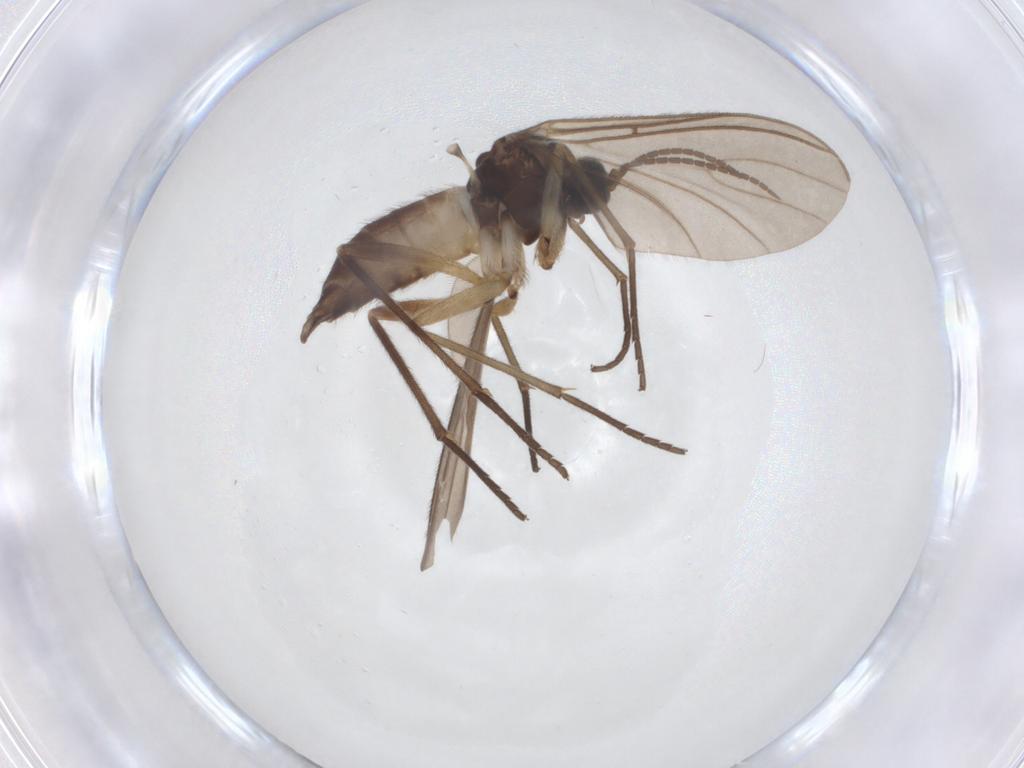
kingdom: Animalia
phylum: Arthropoda
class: Insecta
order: Diptera
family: Sciaridae
